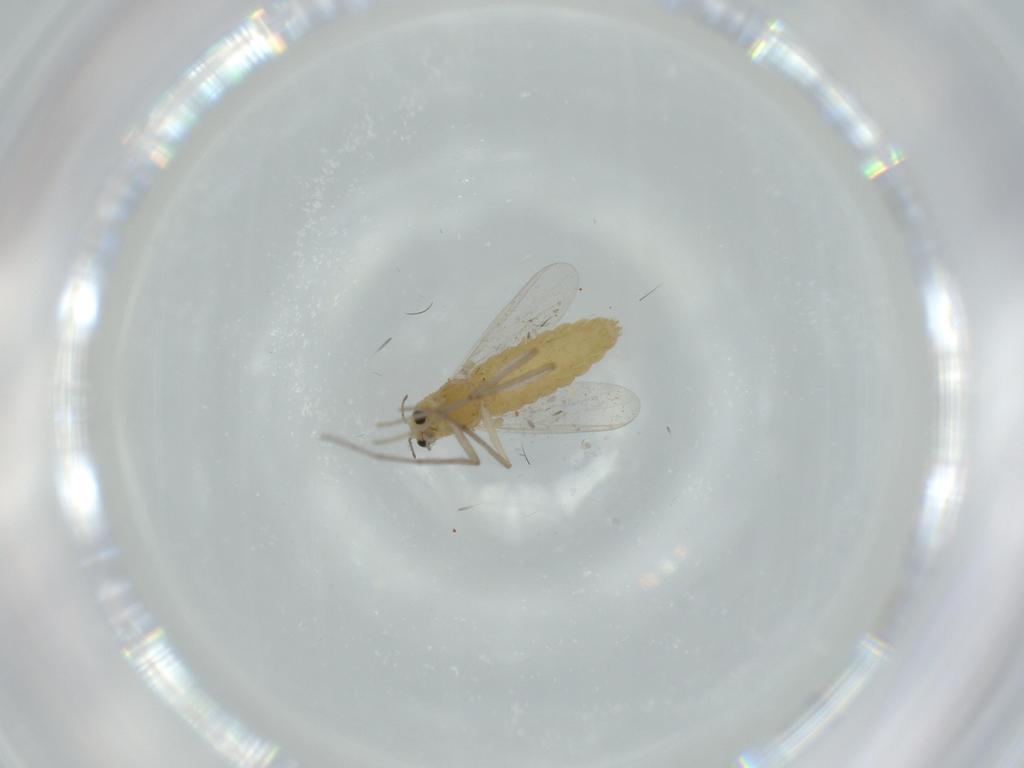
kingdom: Animalia
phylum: Arthropoda
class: Insecta
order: Diptera
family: Chironomidae
